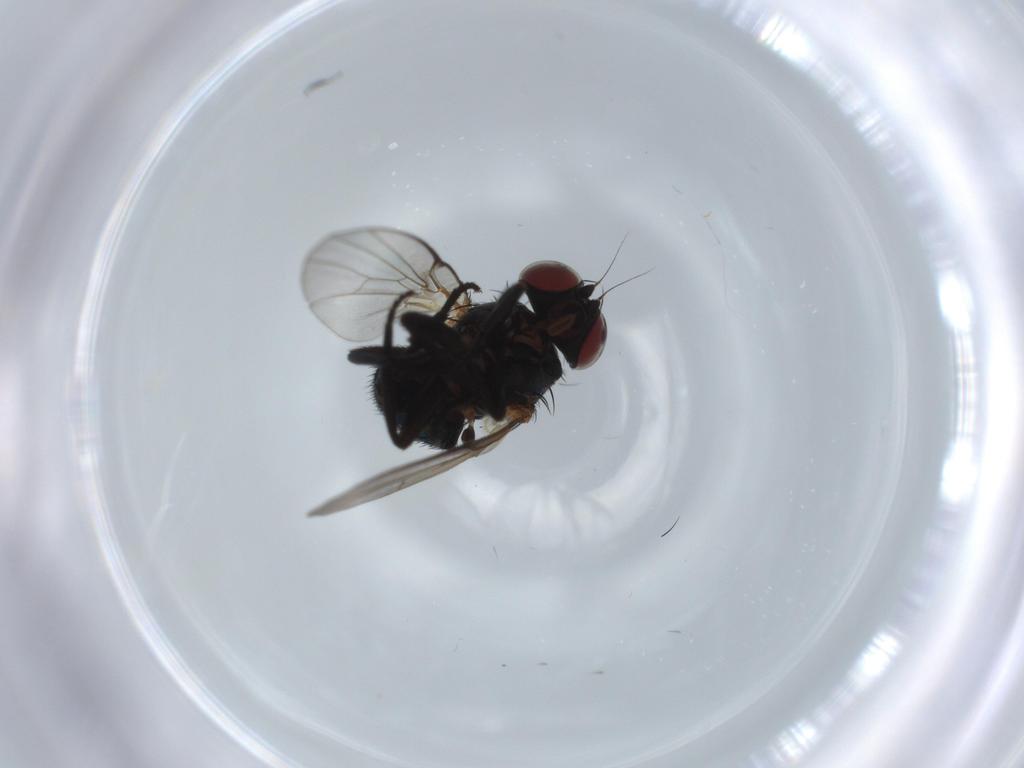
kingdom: Animalia
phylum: Arthropoda
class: Insecta
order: Diptera
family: Agromyzidae
